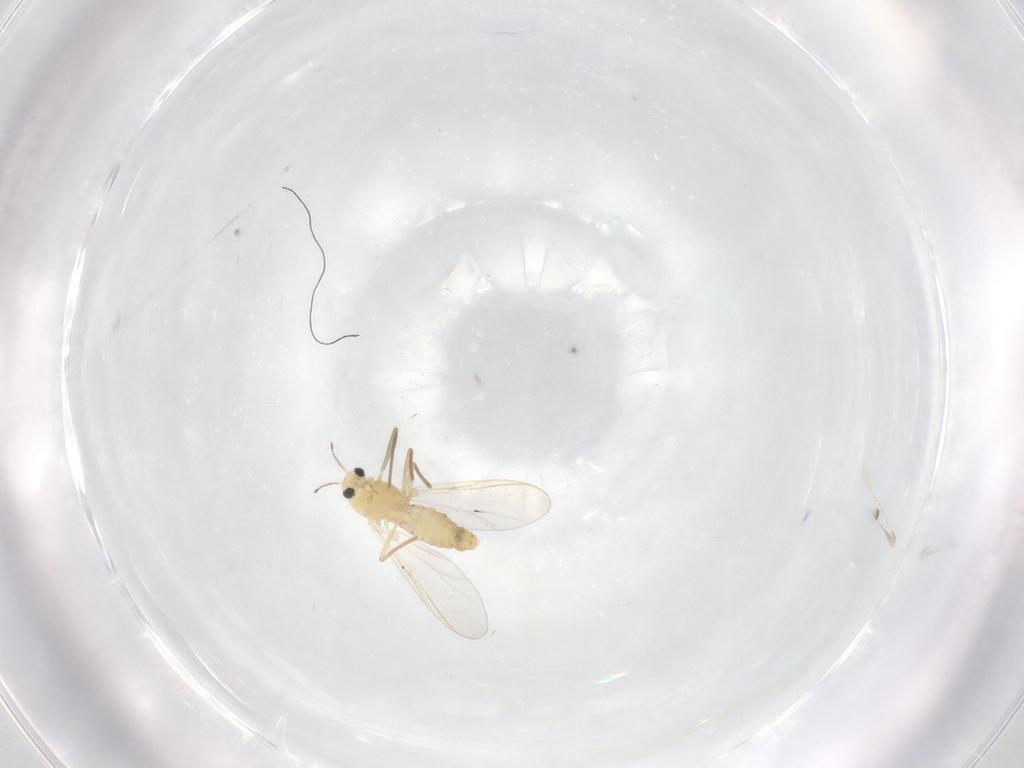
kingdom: Animalia
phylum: Arthropoda
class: Insecta
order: Diptera
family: Chironomidae
